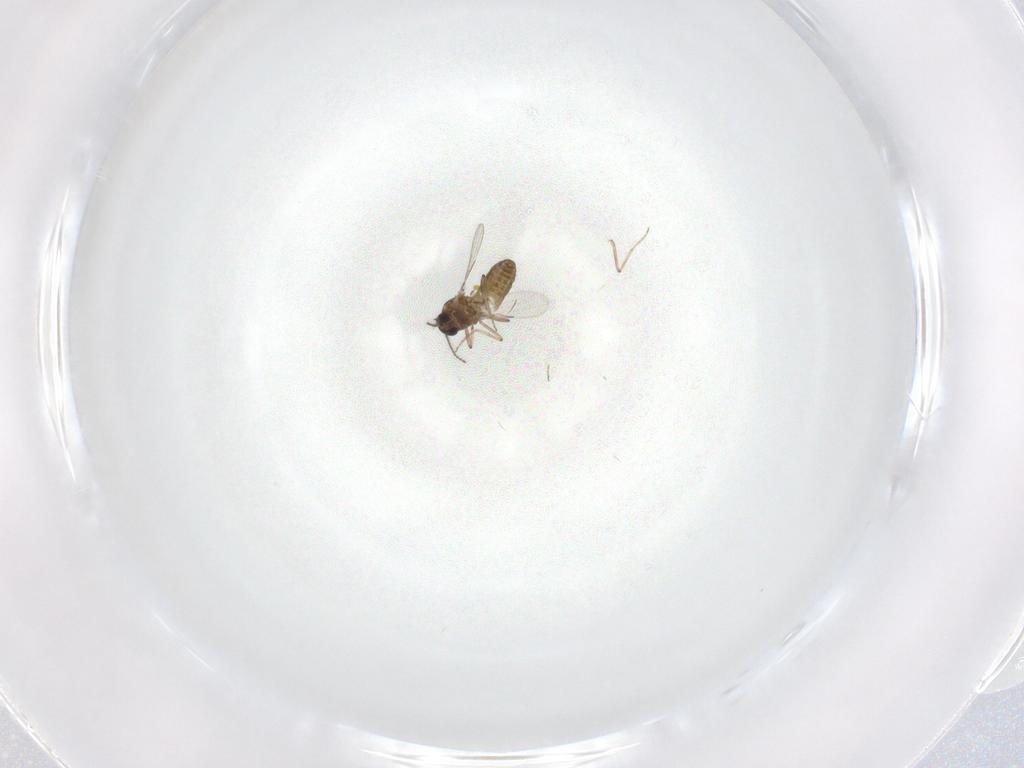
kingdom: Animalia
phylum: Arthropoda
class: Insecta
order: Diptera
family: Ceratopogonidae
